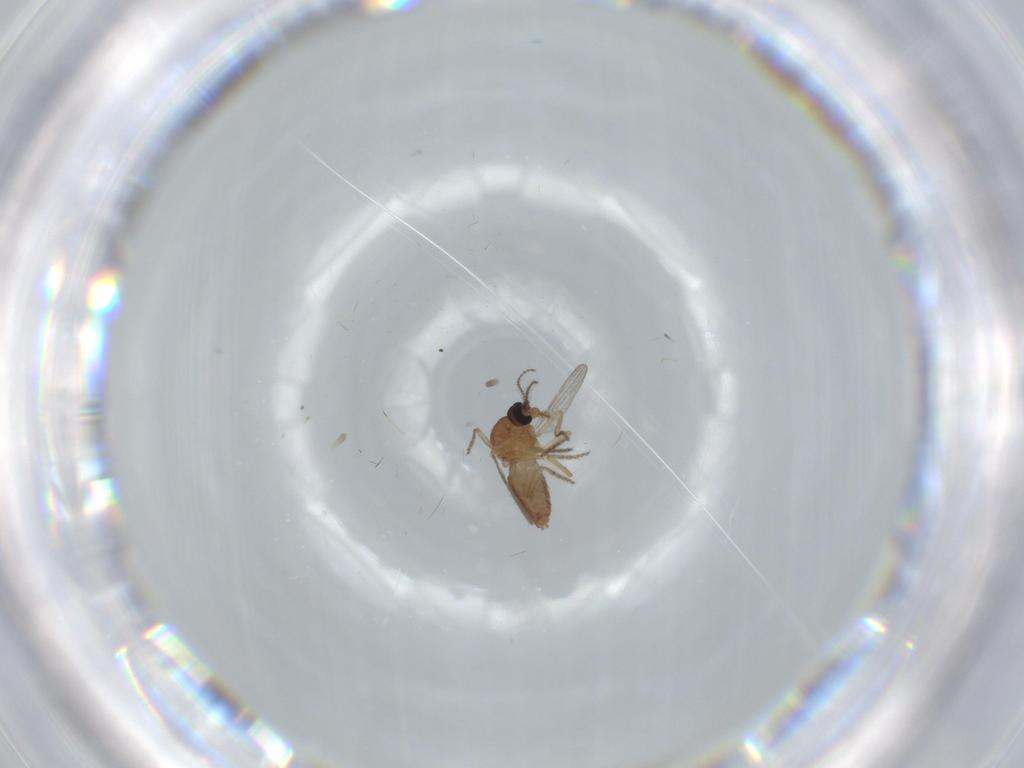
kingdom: Animalia
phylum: Arthropoda
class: Insecta
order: Diptera
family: Ceratopogonidae
